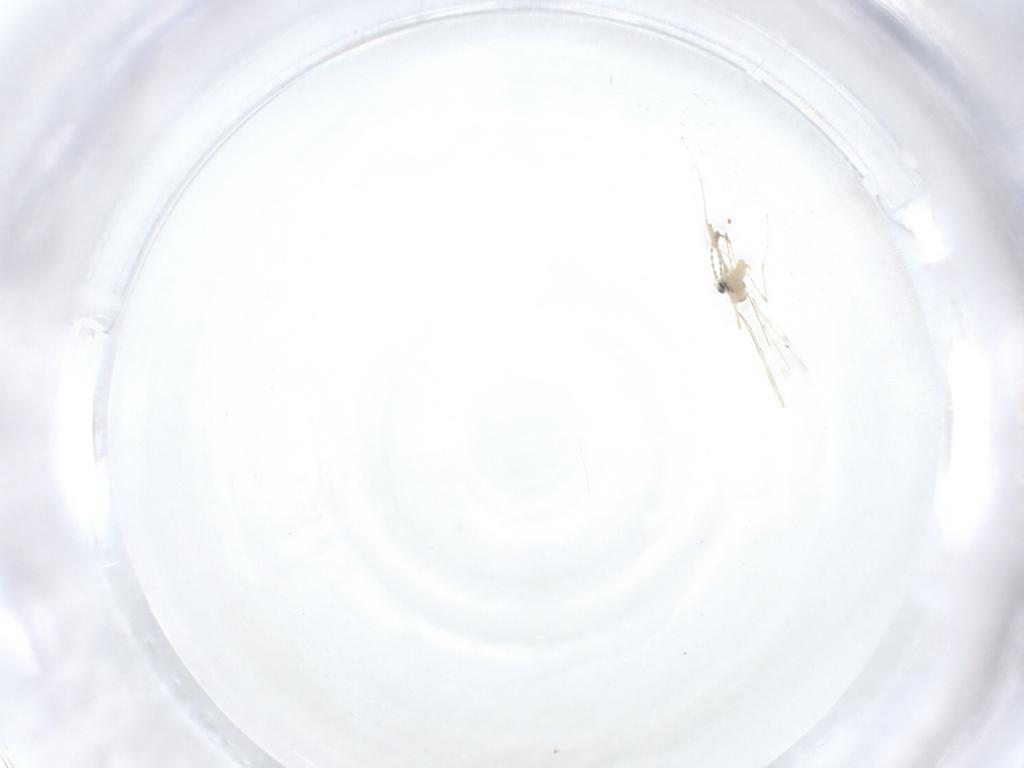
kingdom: Animalia
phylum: Arthropoda
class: Insecta
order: Diptera
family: Cecidomyiidae
